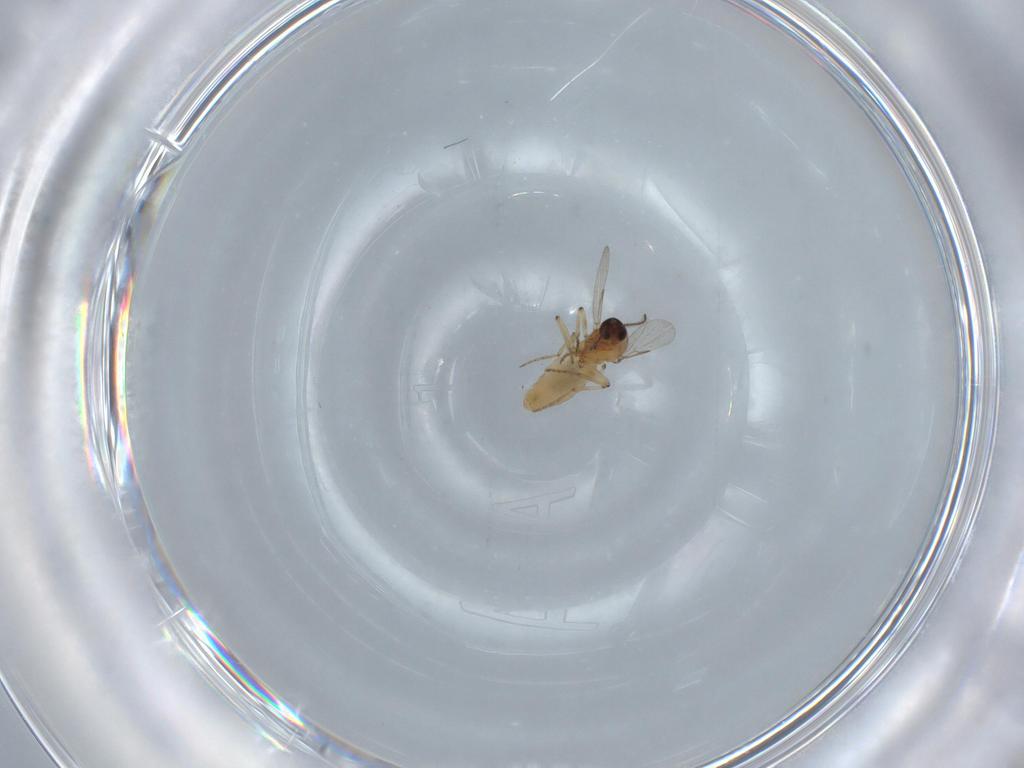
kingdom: Animalia
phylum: Arthropoda
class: Insecta
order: Diptera
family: Ceratopogonidae
